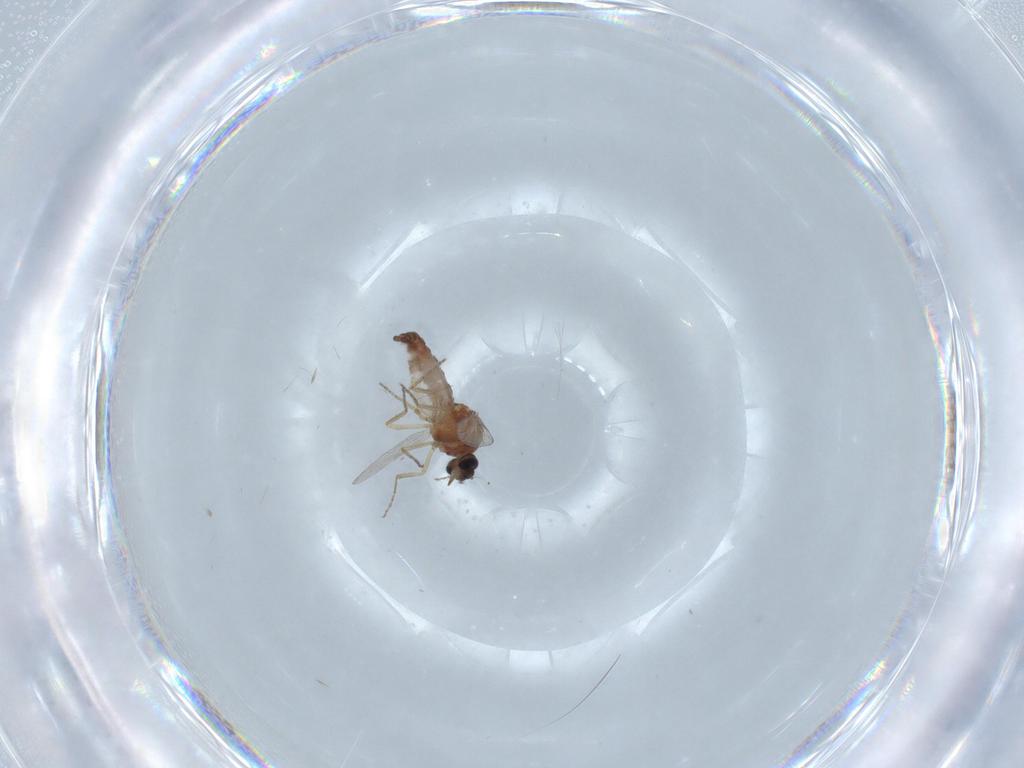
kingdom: Animalia
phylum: Arthropoda
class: Insecta
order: Diptera
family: Ceratopogonidae
